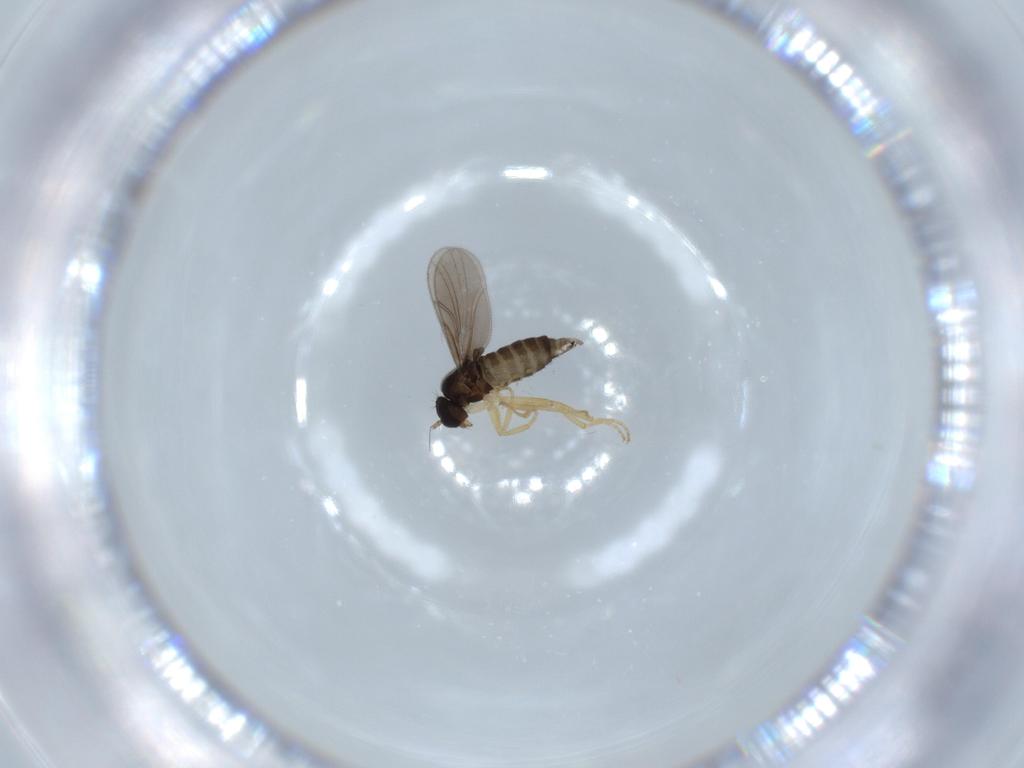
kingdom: Animalia
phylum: Arthropoda
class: Insecta
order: Diptera
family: Hybotidae
